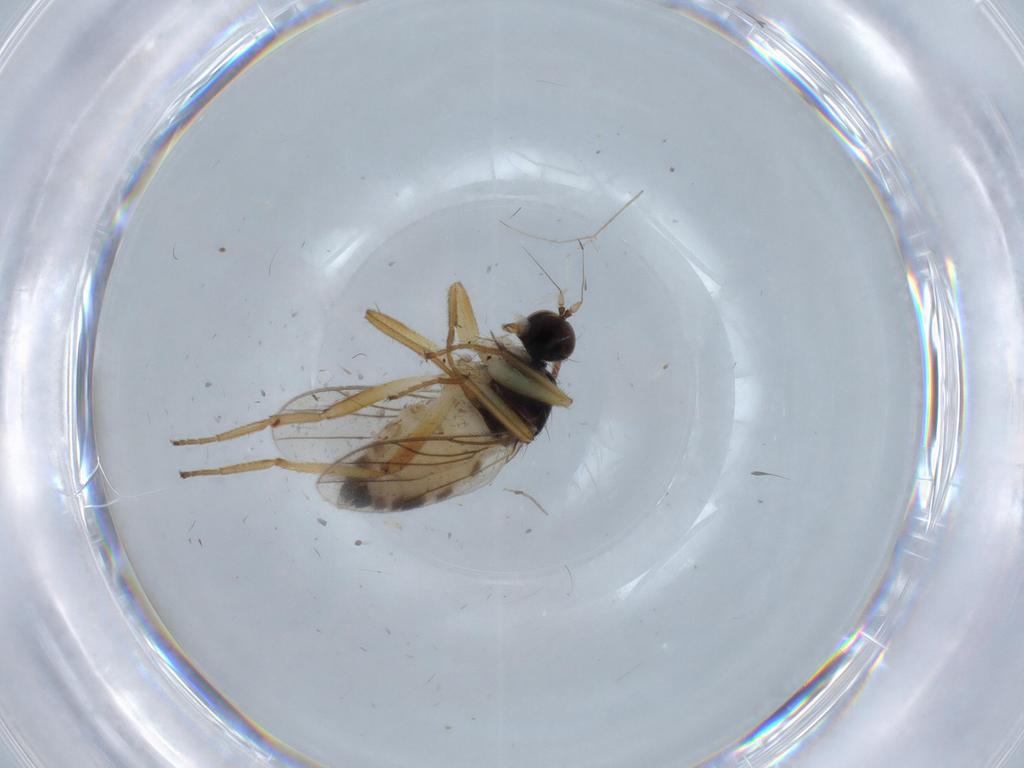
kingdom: Animalia
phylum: Arthropoda
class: Insecta
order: Diptera
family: Hybotidae
